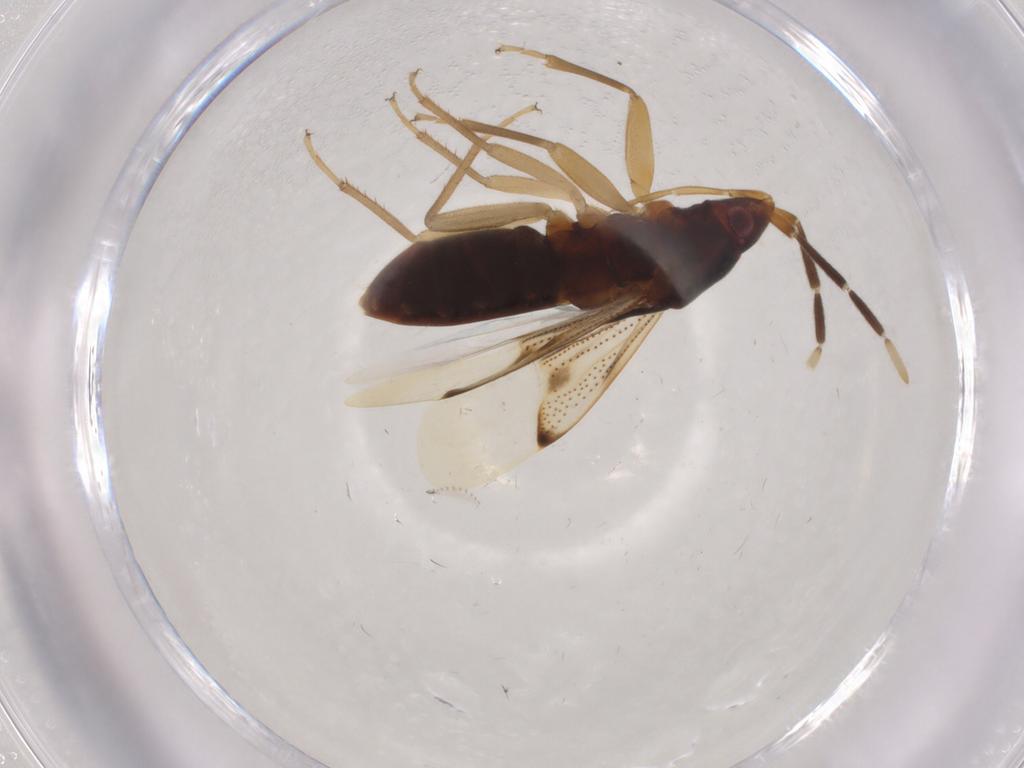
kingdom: Animalia
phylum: Arthropoda
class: Insecta
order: Hemiptera
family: Rhyparochromidae
